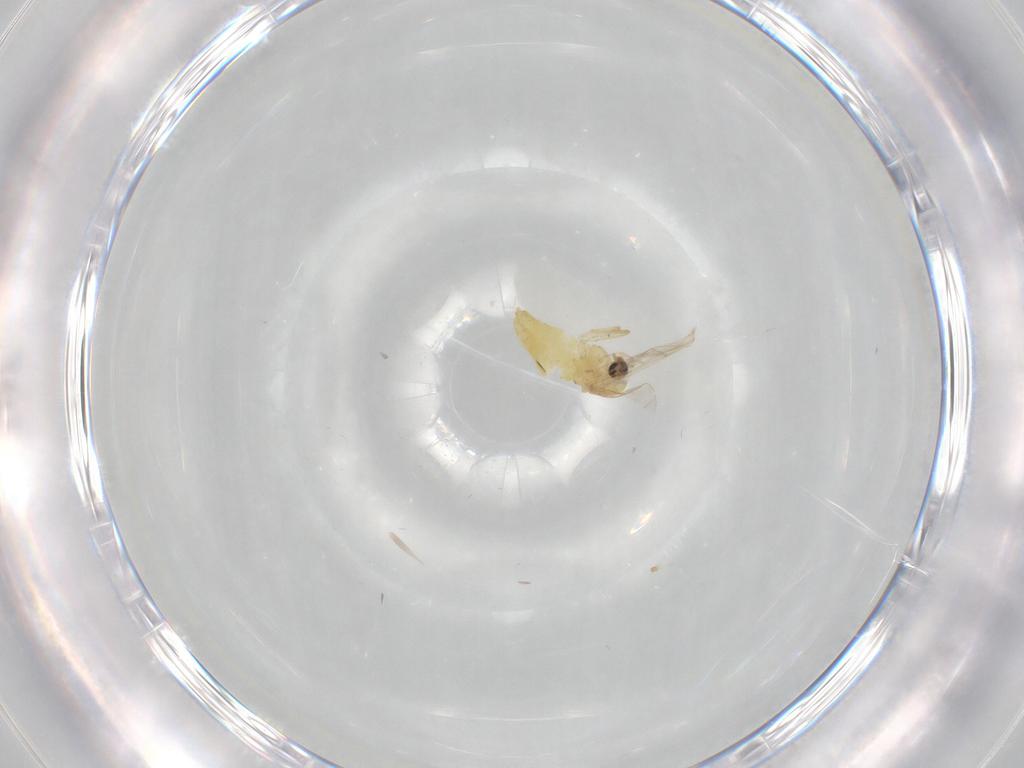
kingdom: Animalia
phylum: Arthropoda
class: Insecta
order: Diptera
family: Chironomidae
